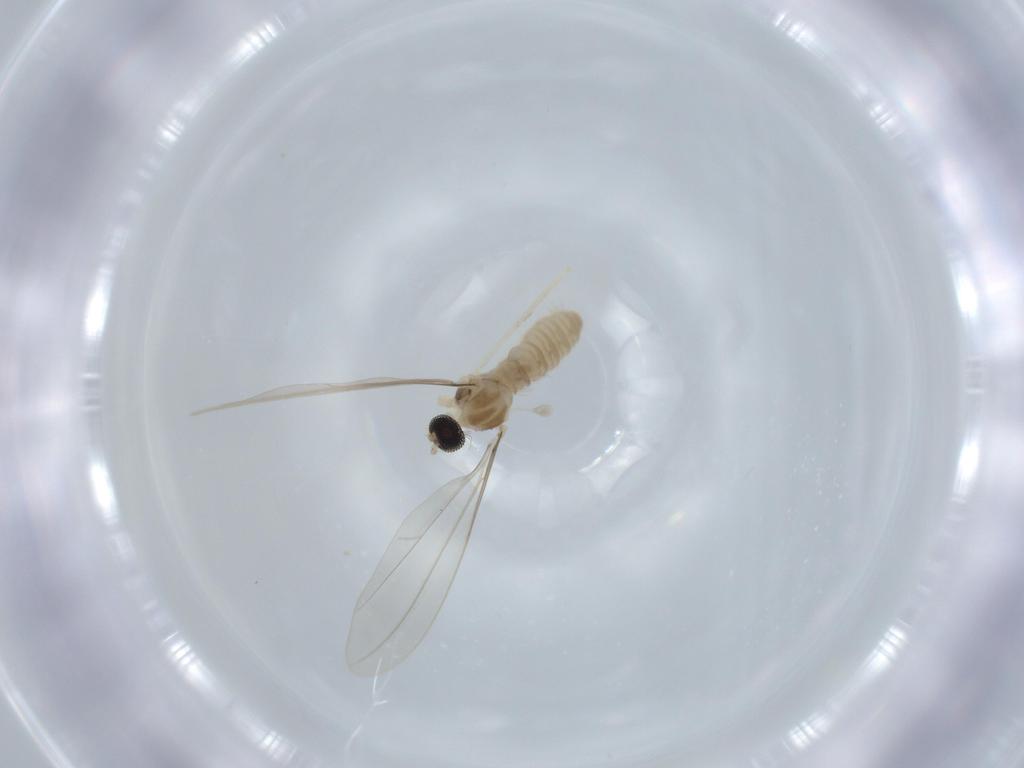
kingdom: Animalia
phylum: Arthropoda
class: Insecta
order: Diptera
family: Cecidomyiidae
